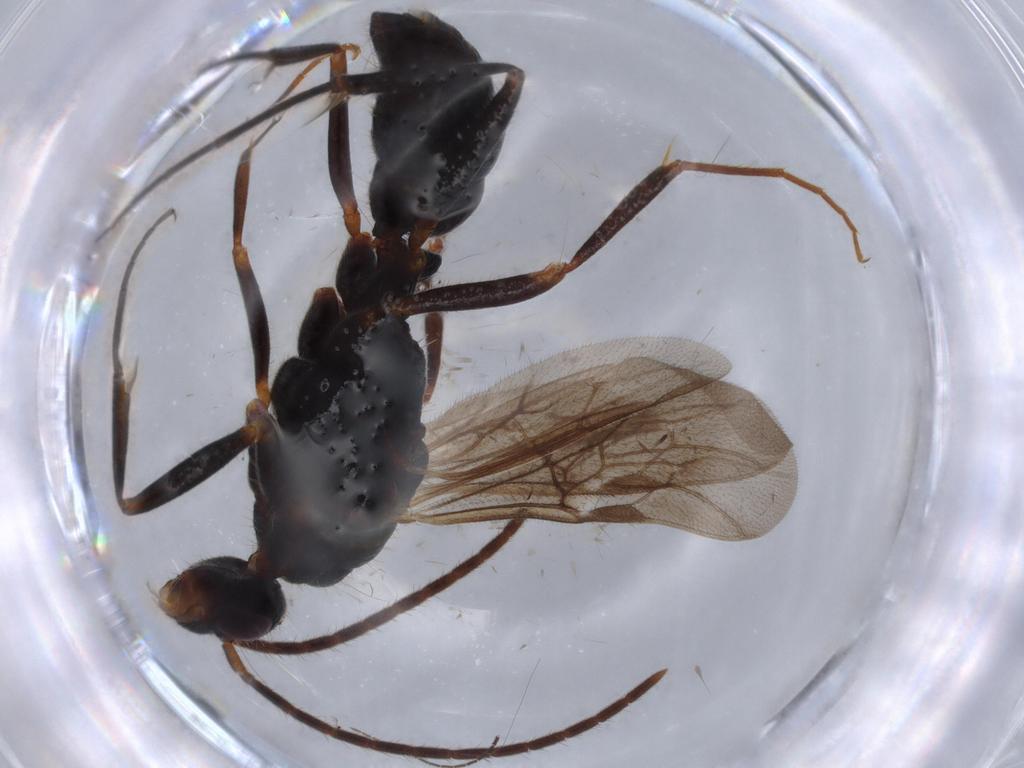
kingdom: Animalia
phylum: Arthropoda
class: Insecta
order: Hymenoptera
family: Formicidae
